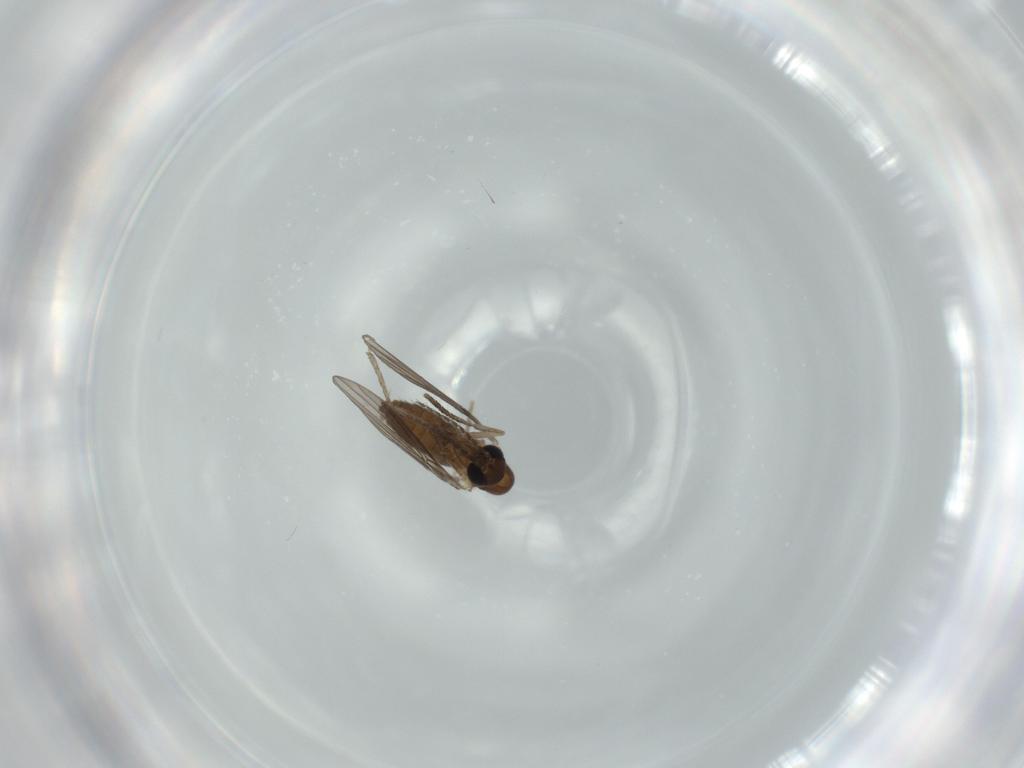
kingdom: Animalia
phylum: Arthropoda
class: Insecta
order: Diptera
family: Psychodidae
